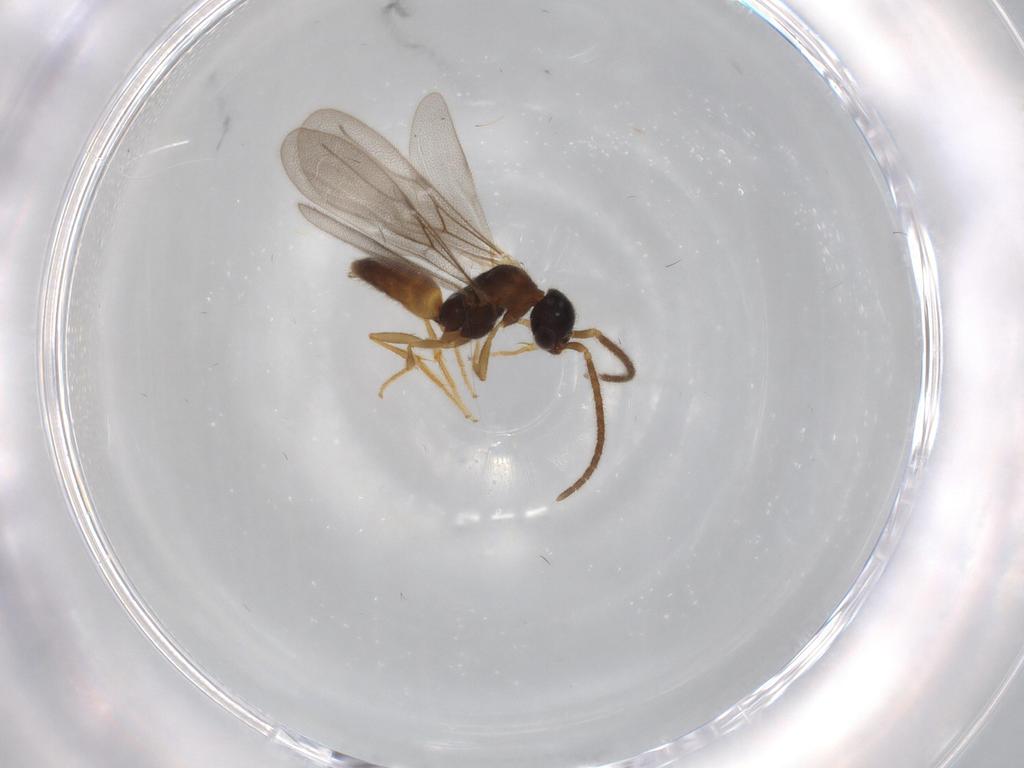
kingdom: Animalia
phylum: Arthropoda
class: Insecta
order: Hymenoptera
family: Bethylidae
